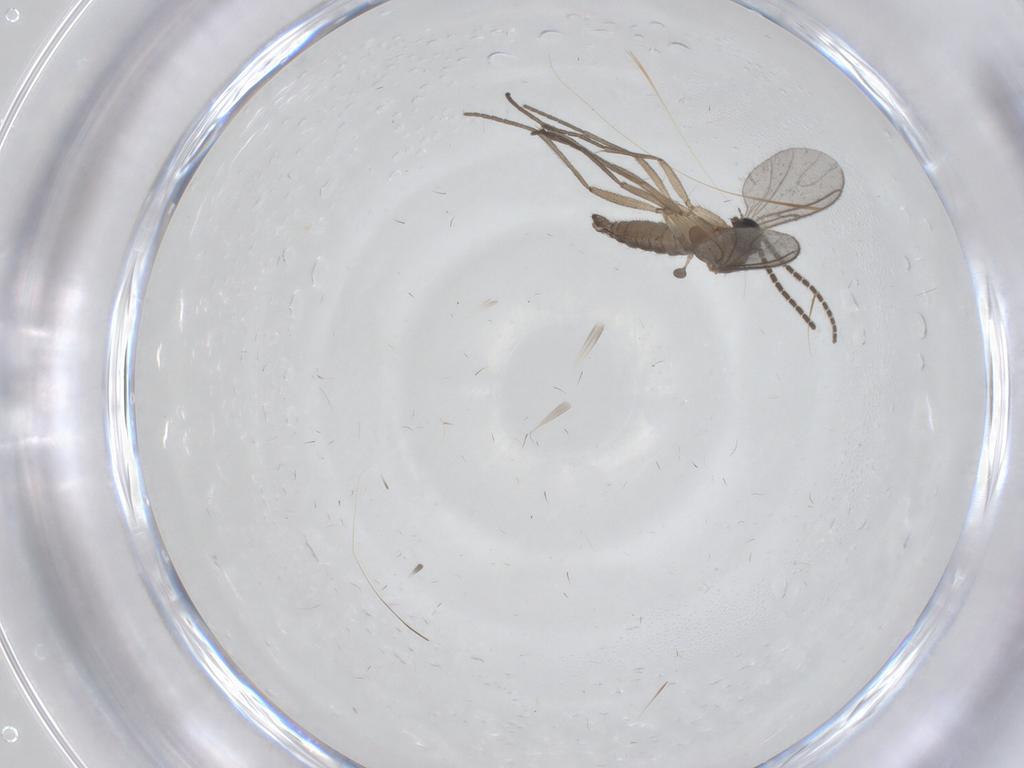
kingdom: Animalia
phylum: Arthropoda
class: Insecta
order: Diptera
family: Sciaridae
